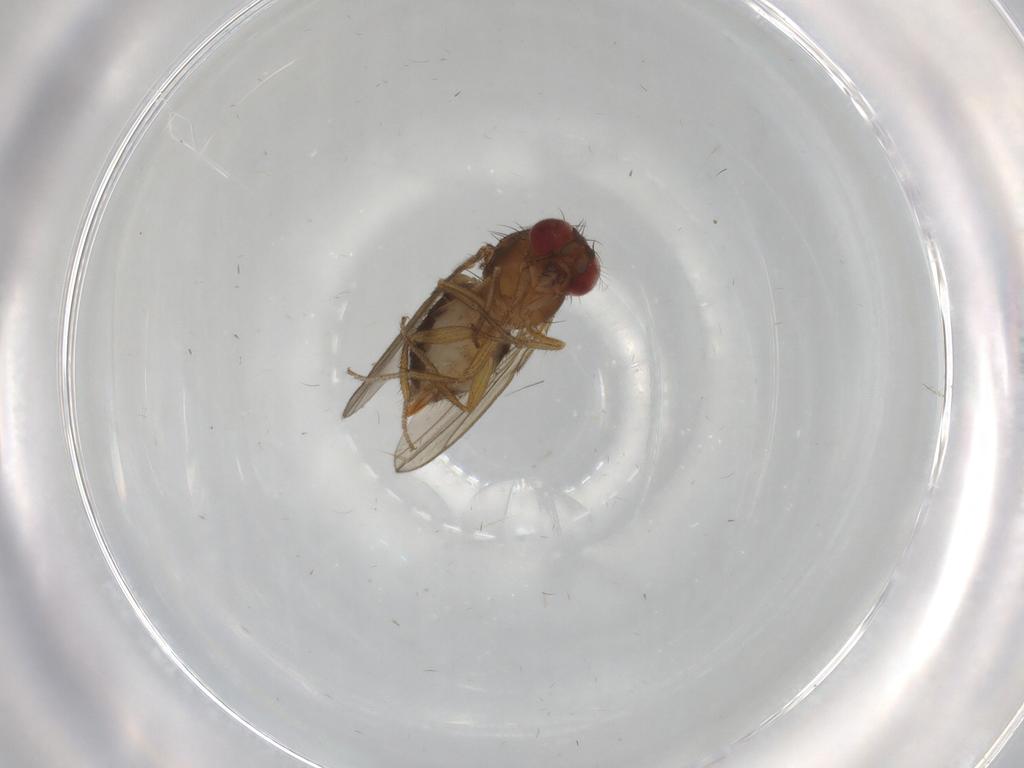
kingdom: Animalia
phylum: Arthropoda
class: Insecta
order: Diptera
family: Drosophilidae
